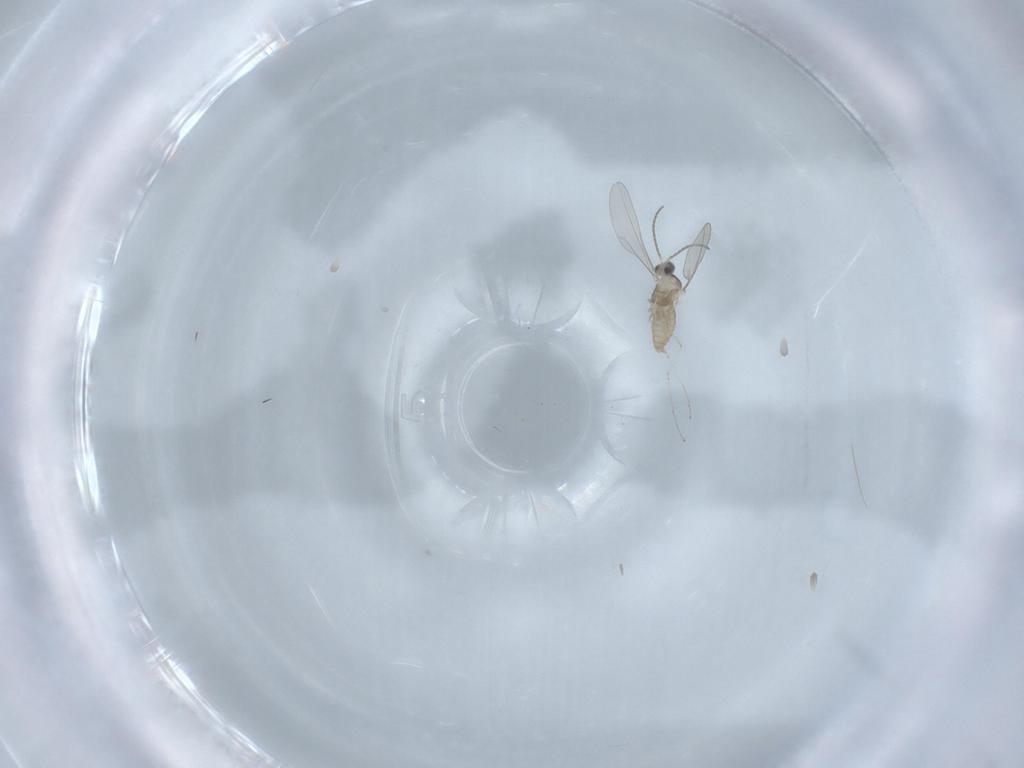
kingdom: Animalia
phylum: Arthropoda
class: Insecta
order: Diptera
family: Cecidomyiidae
